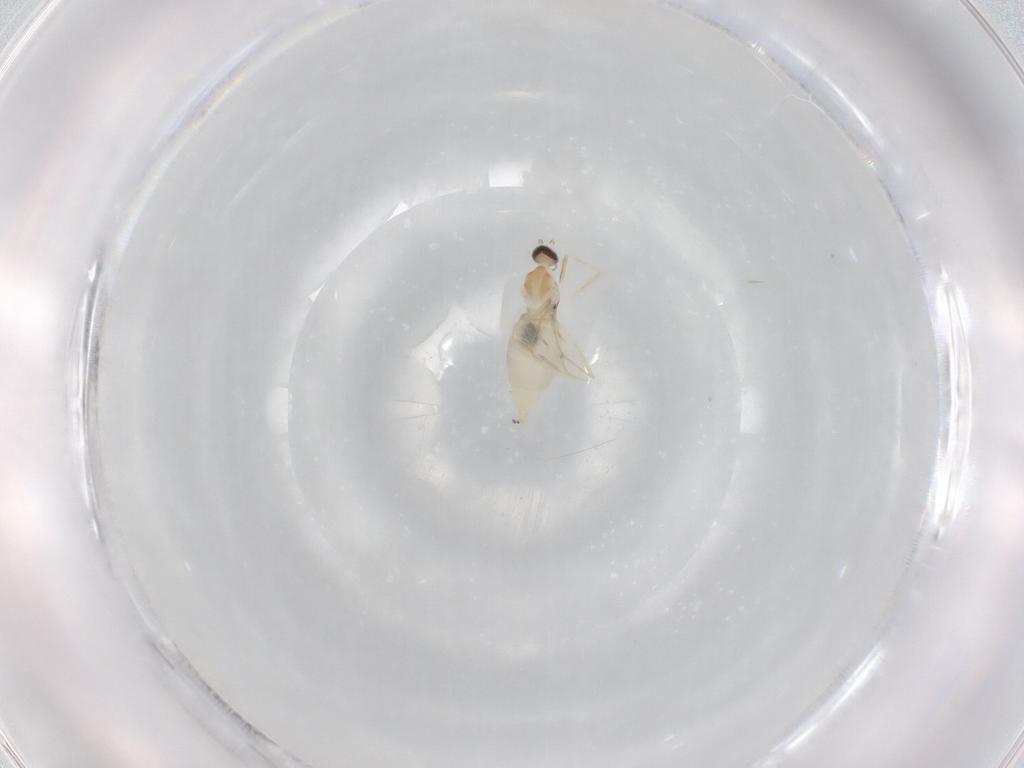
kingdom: Animalia
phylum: Arthropoda
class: Insecta
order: Diptera
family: Cecidomyiidae
